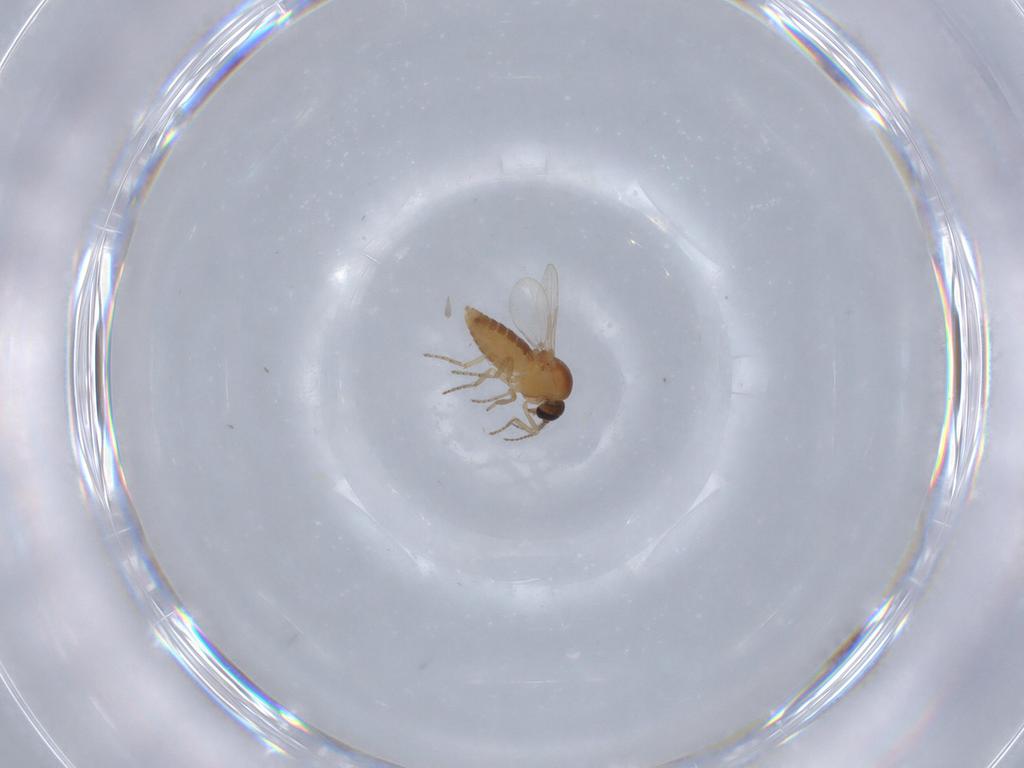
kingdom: Animalia
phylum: Arthropoda
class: Insecta
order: Diptera
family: Ceratopogonidae
